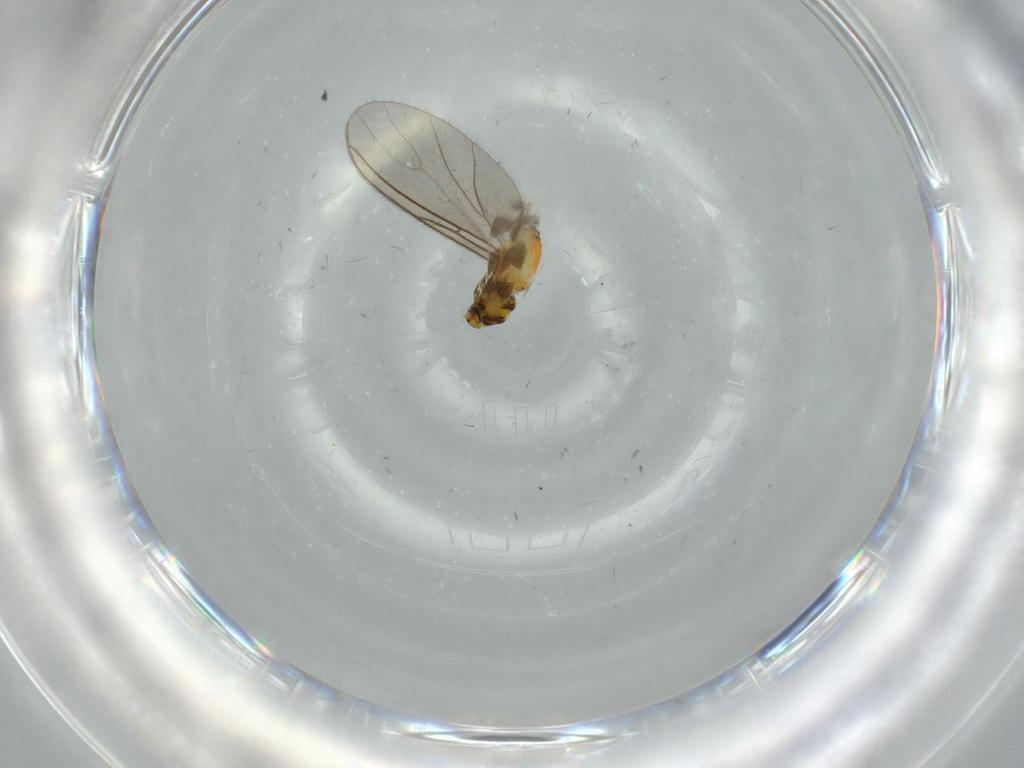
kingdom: Animalia
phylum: Arthropoda
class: Insecta
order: Hemiptera
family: Aleyrodidae
